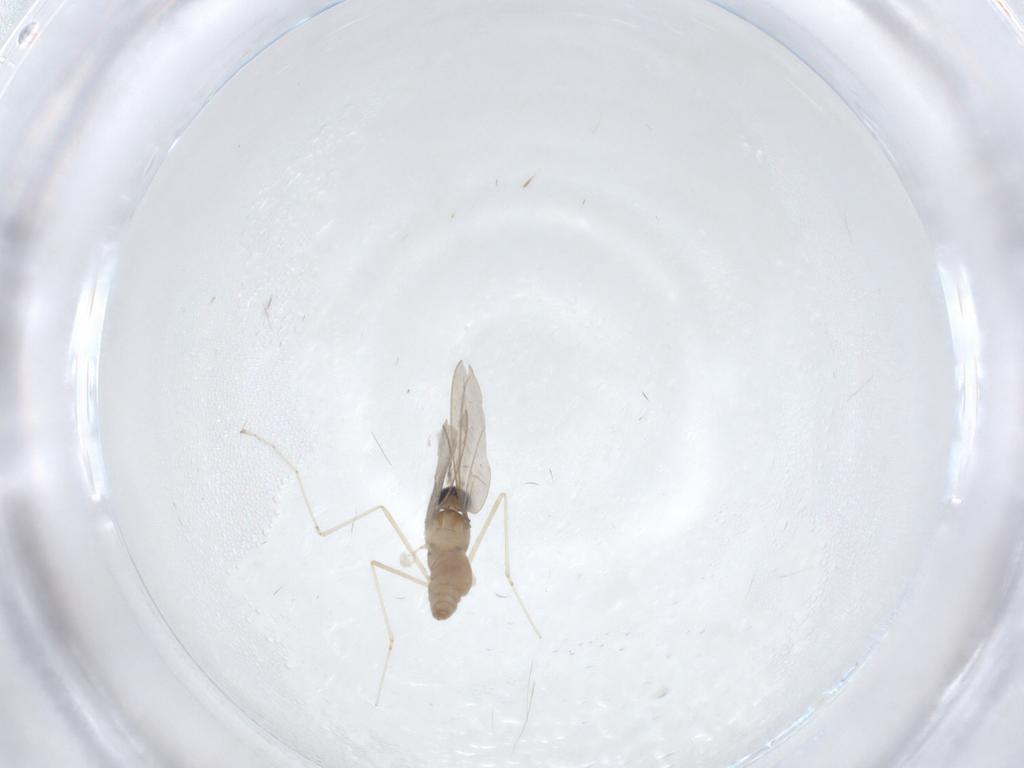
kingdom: Animalia
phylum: Arthropoda
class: Insecta
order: Diptera
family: Cecidomyiidae
